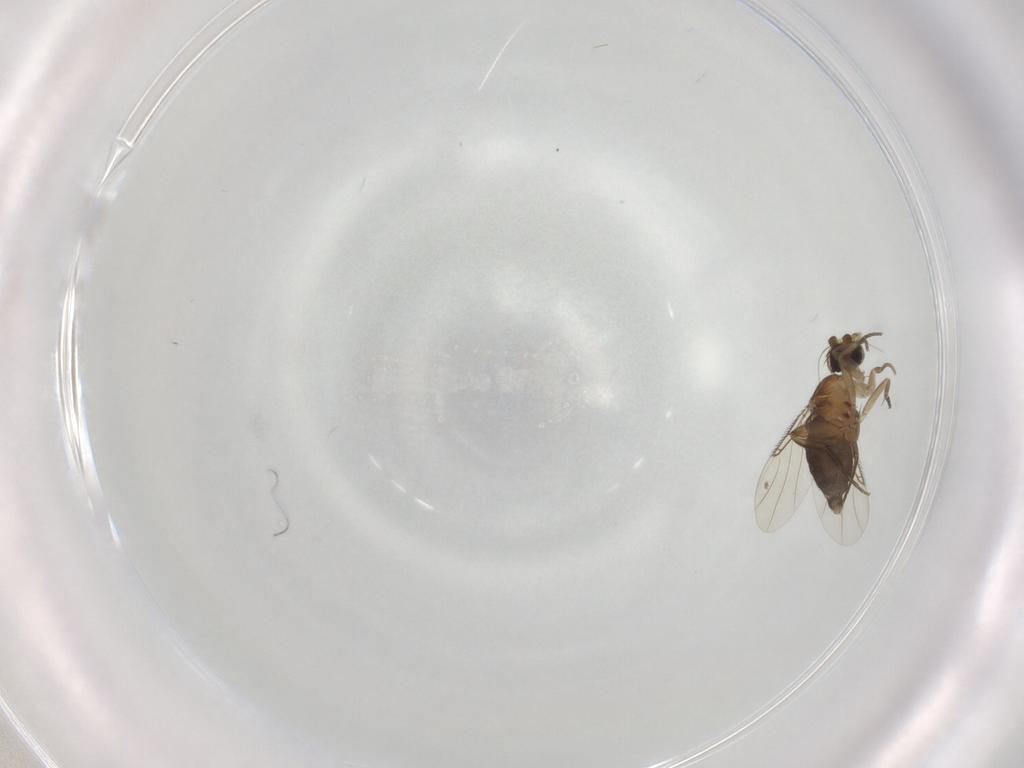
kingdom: Animalia
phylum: Arthropoda
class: Insecta
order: Diptera
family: Phoridae
